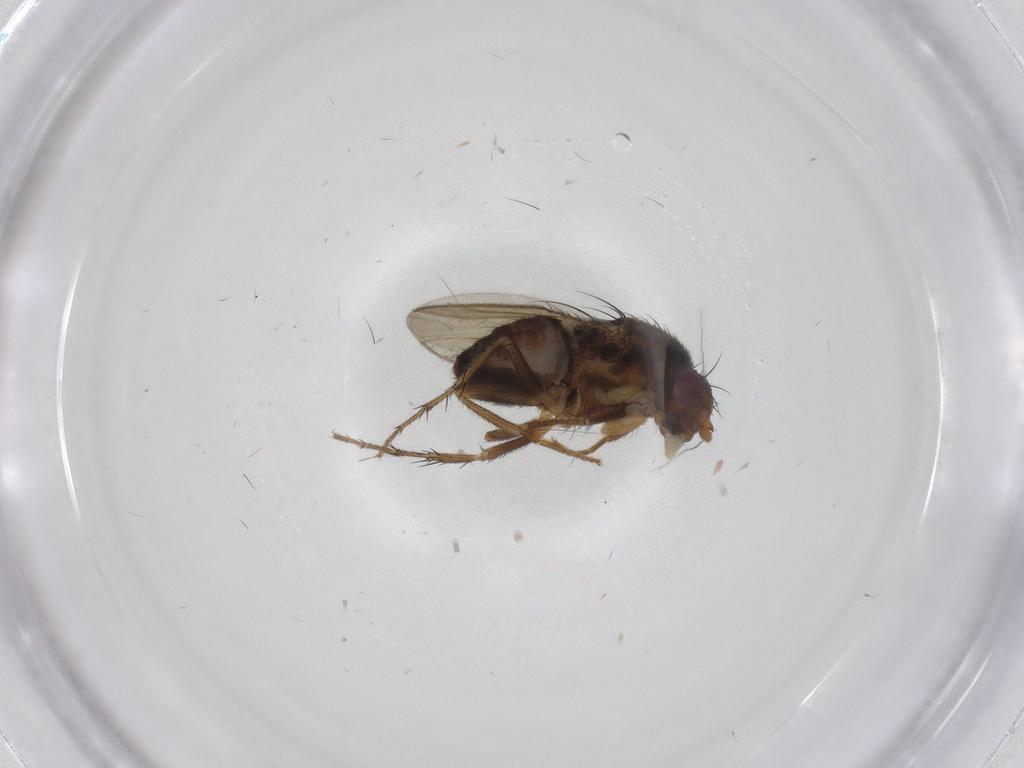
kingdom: Animalia
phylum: Arthropoda
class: Insecta
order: Diptera
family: Sphaeroceridae
